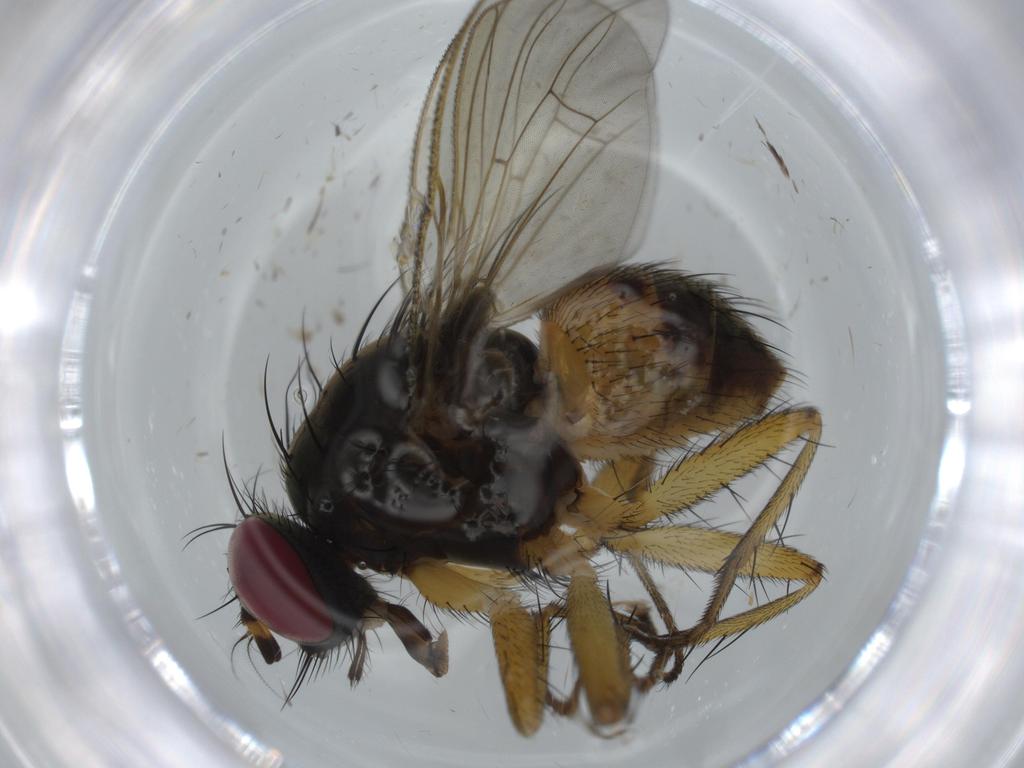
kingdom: Animalia
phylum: Arthropoda
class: Insecta
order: Diptera
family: Muscidae
